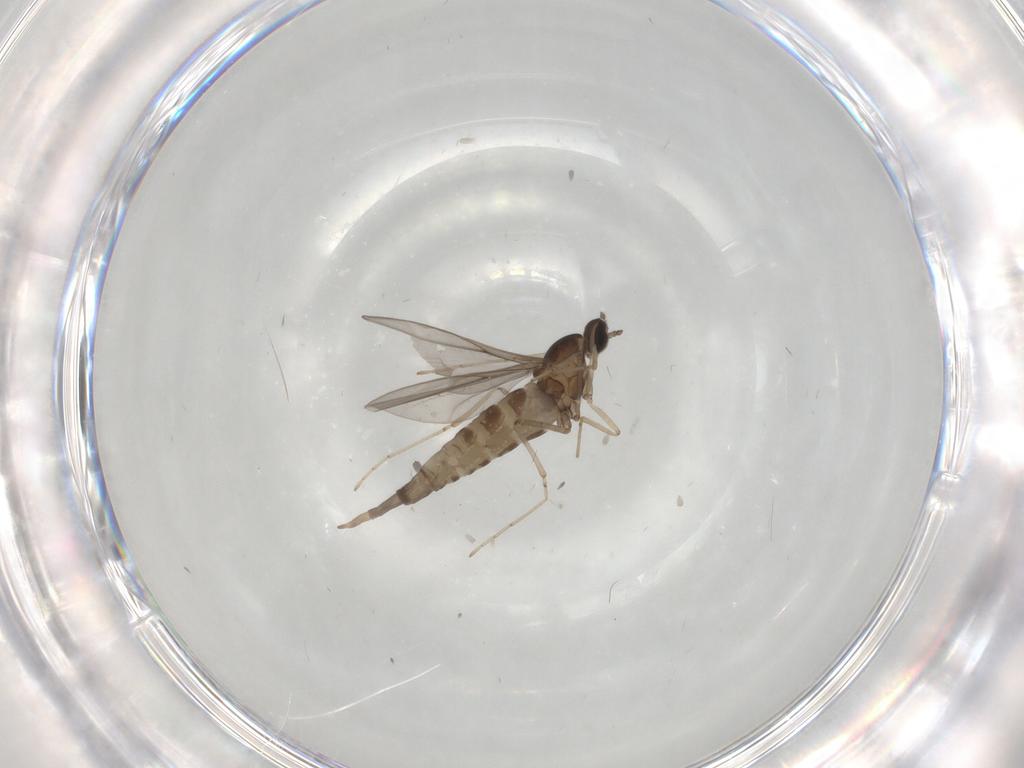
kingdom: Animalia
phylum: Arthropoda
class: Insecta
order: Diptera
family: Cecidomyiidae
